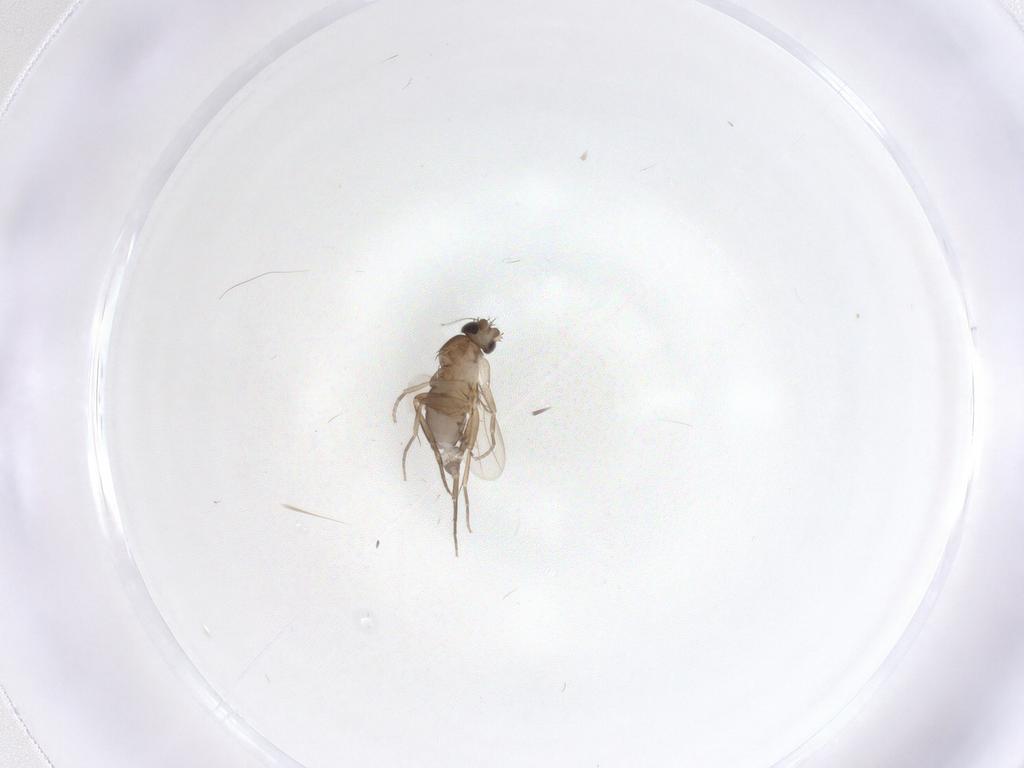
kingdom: Animalia
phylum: Arthropoda
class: Insecta
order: Diptera
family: Phoridae
